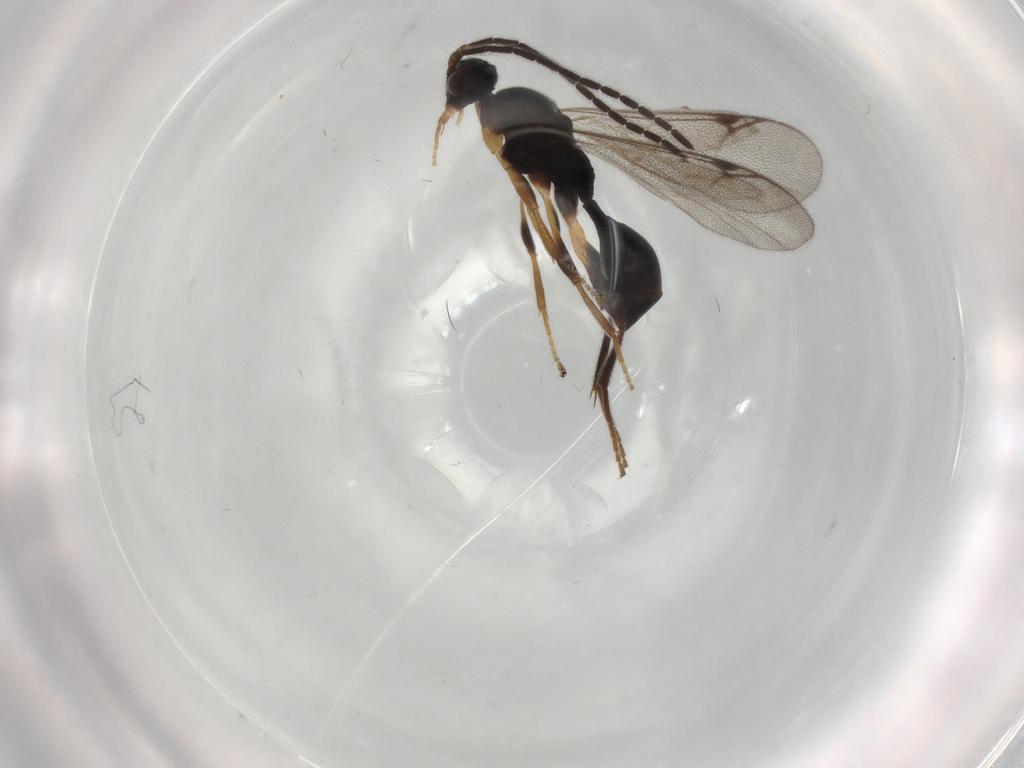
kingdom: Animalia
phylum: Arthropoda
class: Insecta
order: Hymenoptera
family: Proctotrupidae
